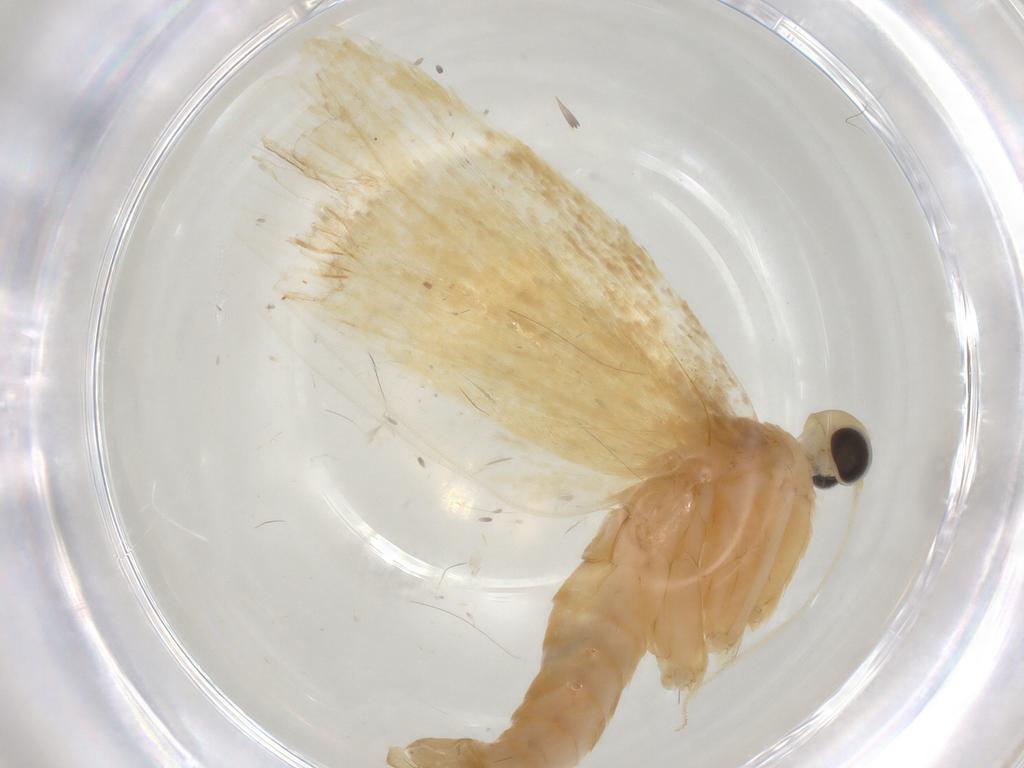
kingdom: Animalia
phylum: Arthropoda
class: Insecta
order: Lepidoptera
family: Lecithoceridae
